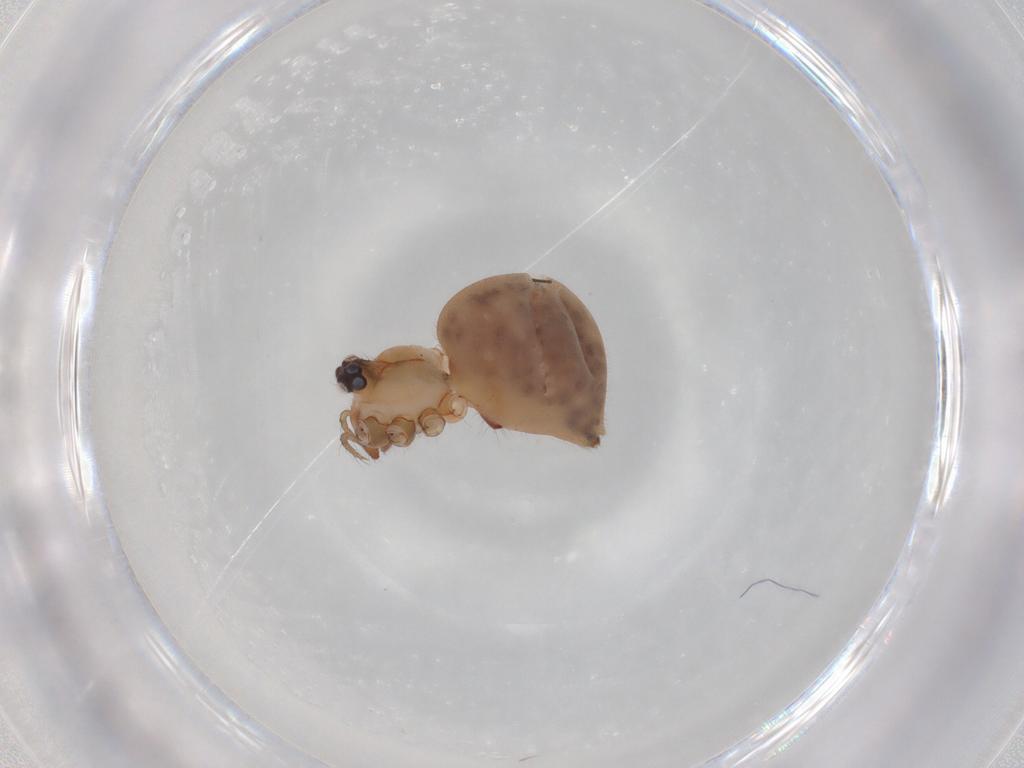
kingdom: Animalia
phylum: Arthropoda
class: Arachnida
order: Araneae
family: Pholcidae
